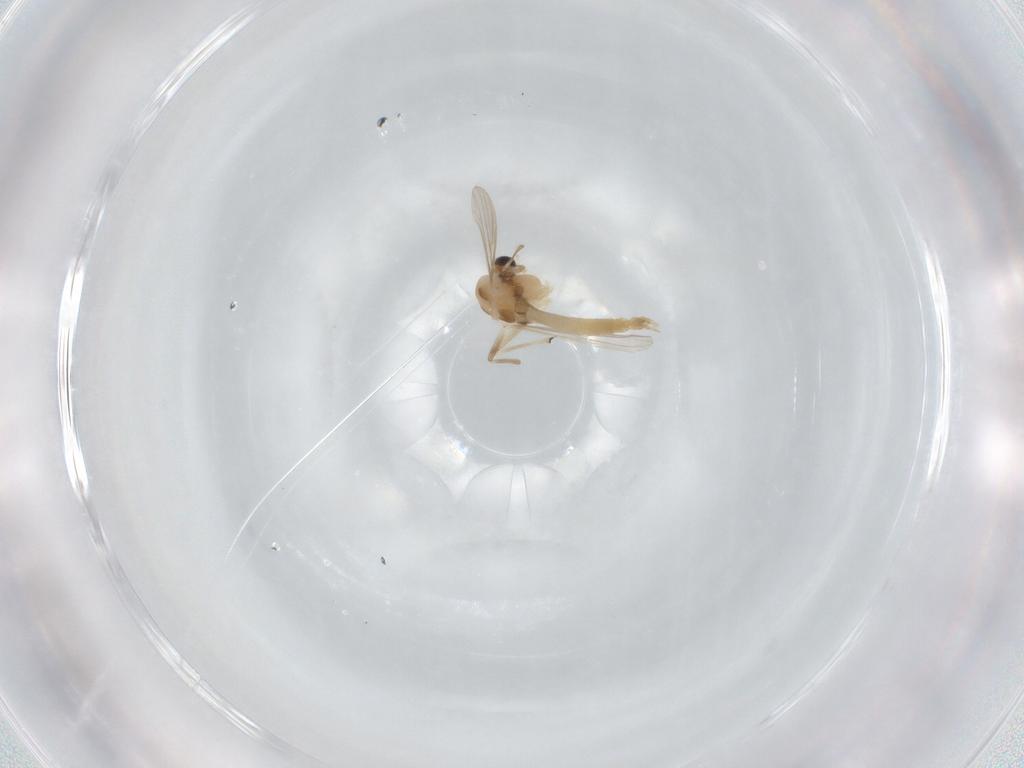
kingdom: Animalia
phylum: Arthropoda
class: Insecta
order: Diptera
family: Chironomidae
